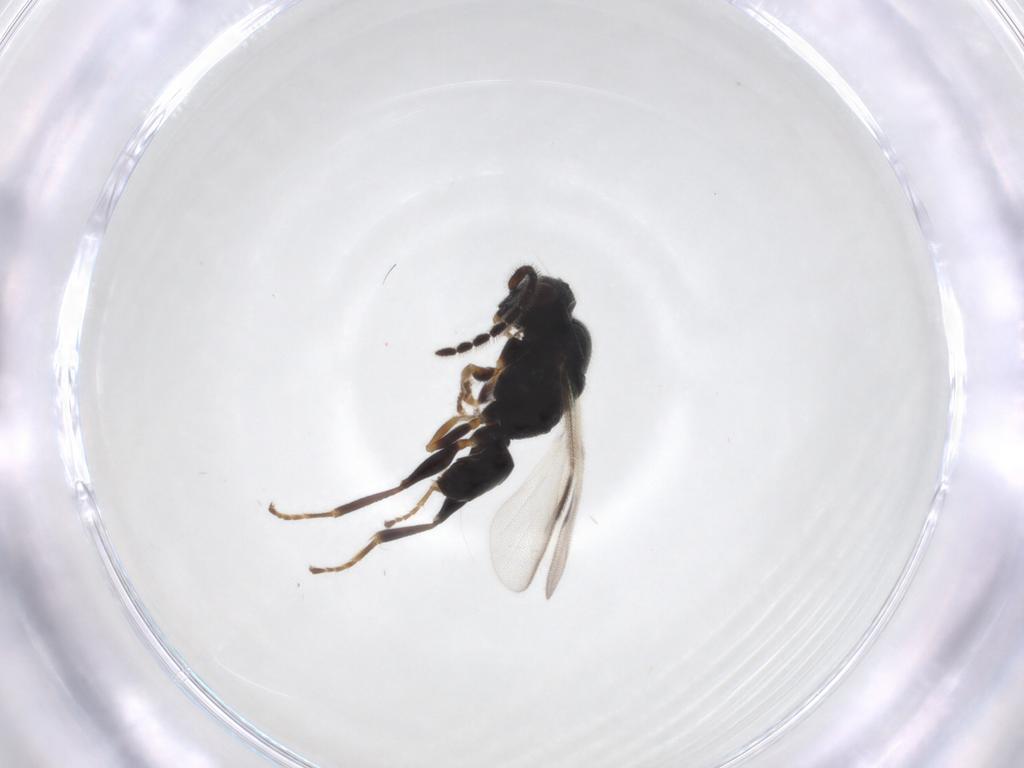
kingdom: Animalia
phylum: Arthropoda
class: Insecta
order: Hymenoptera
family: Dryinidae
